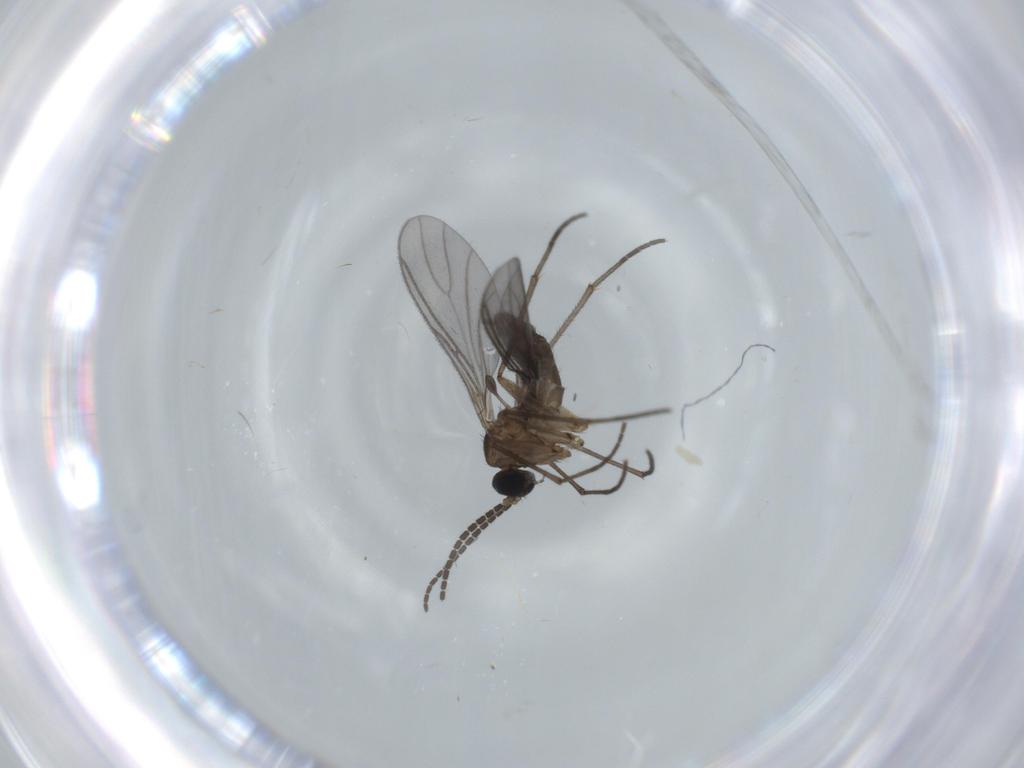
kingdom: Animalia
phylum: Arthropoda
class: Insecta
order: Diptera
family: Sciaridae
